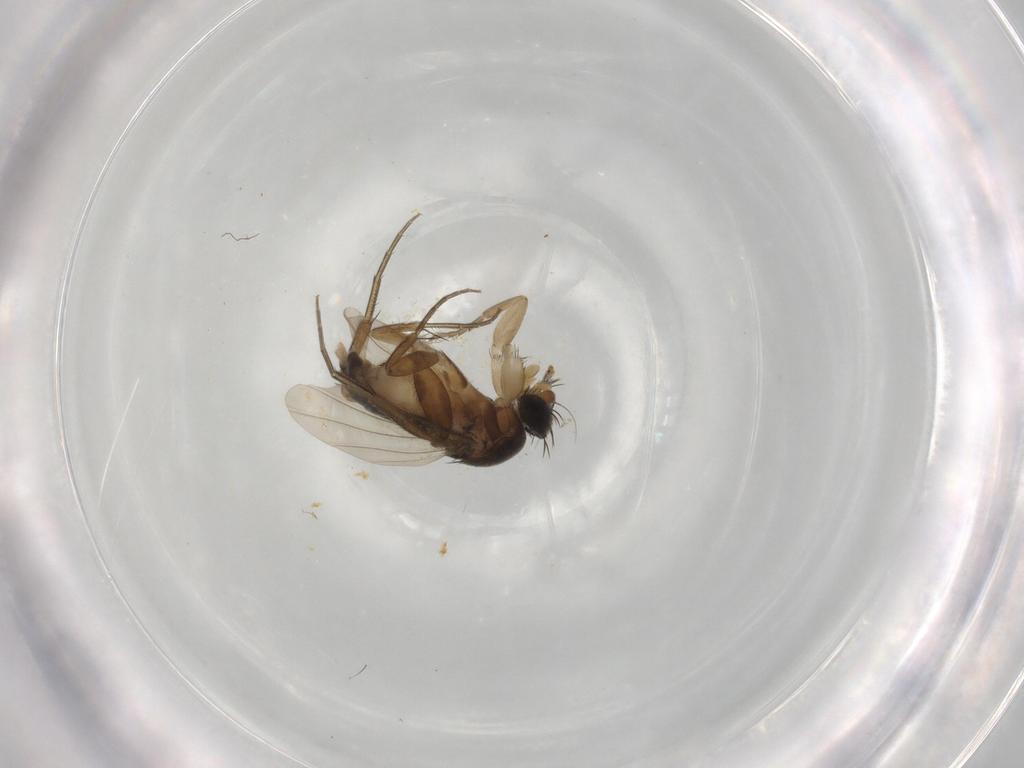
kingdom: Animalia
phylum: Arthropoda
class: Insecta
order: Diptera
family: Phoridae
